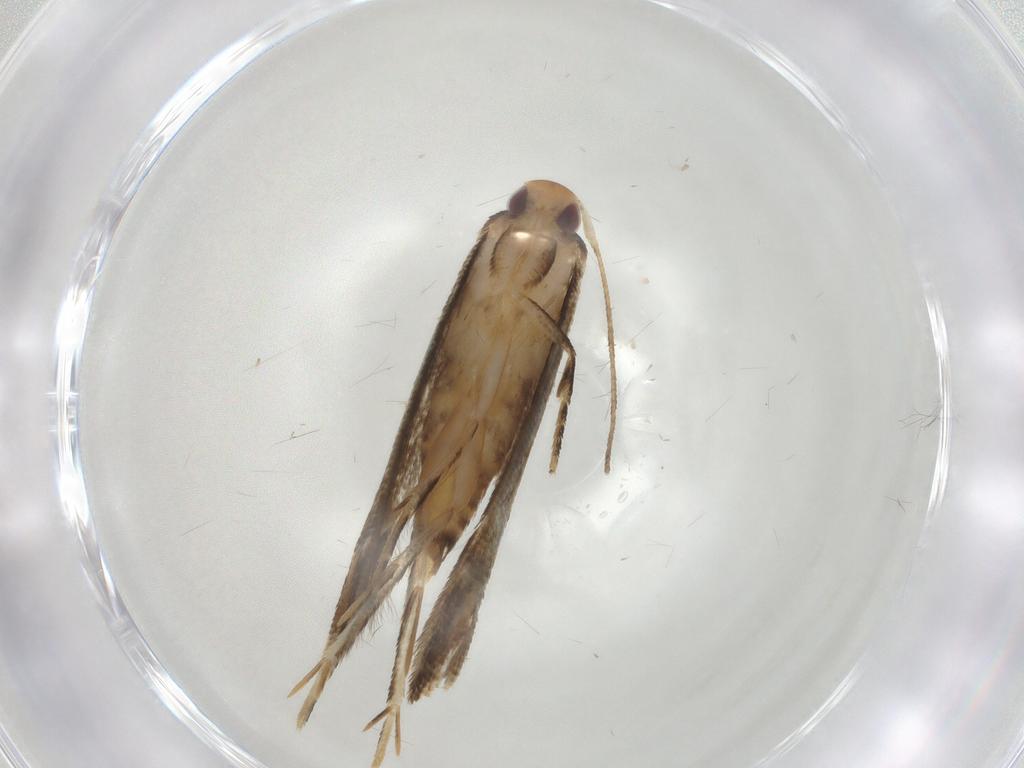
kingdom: Animalia
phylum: Arthropoda
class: Insecta
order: Lepidoptera
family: Momphidae
